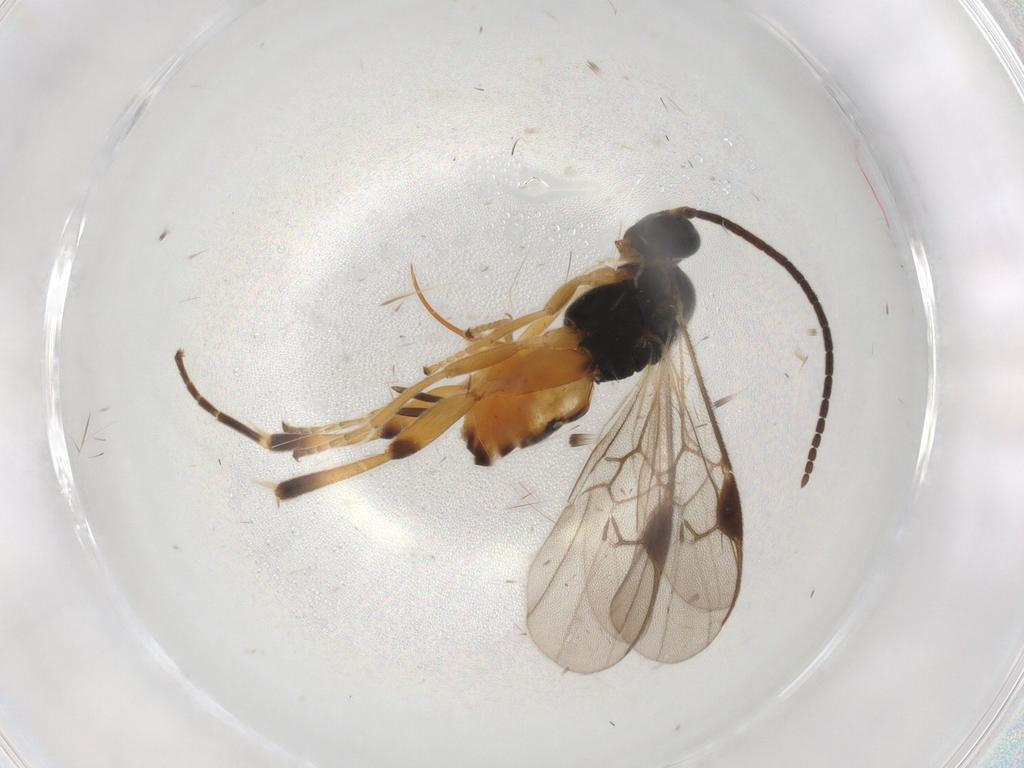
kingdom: Animalia
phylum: Arthropoda
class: Insecta
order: Hymenoptera
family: Braconidae
